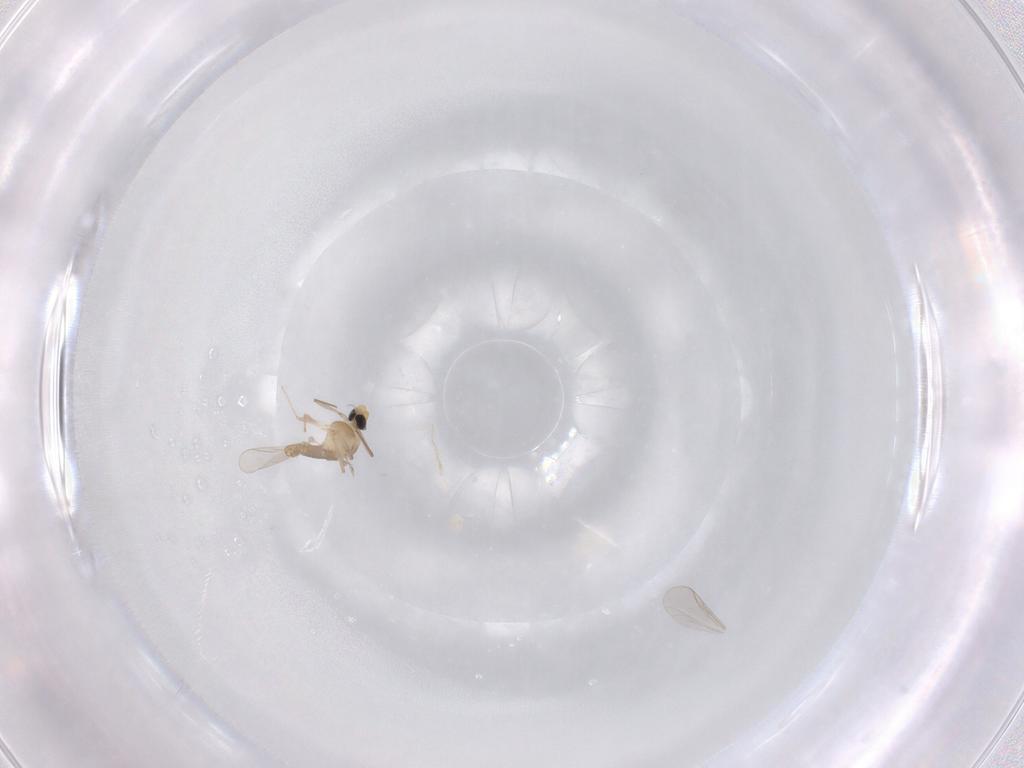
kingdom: Animalia
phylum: Arthropoda
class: Insecta
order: Diptera
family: Chironomidae
